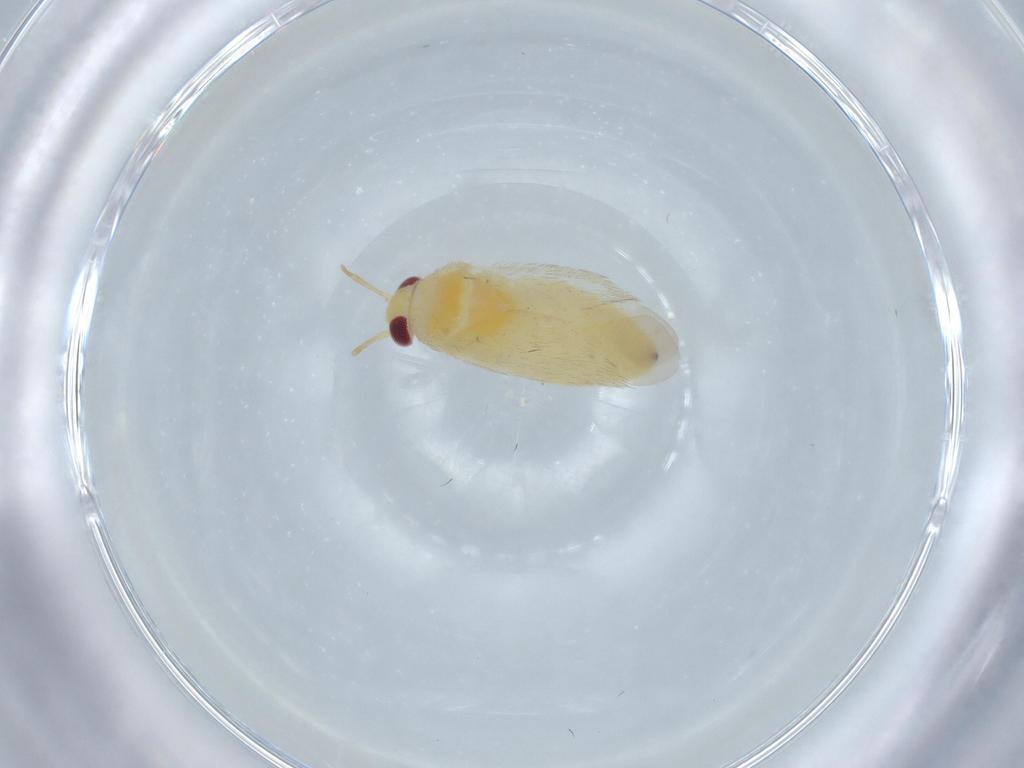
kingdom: Animalia
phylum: Arthropoda
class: Insecta
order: Hemiptera
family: Miridae
